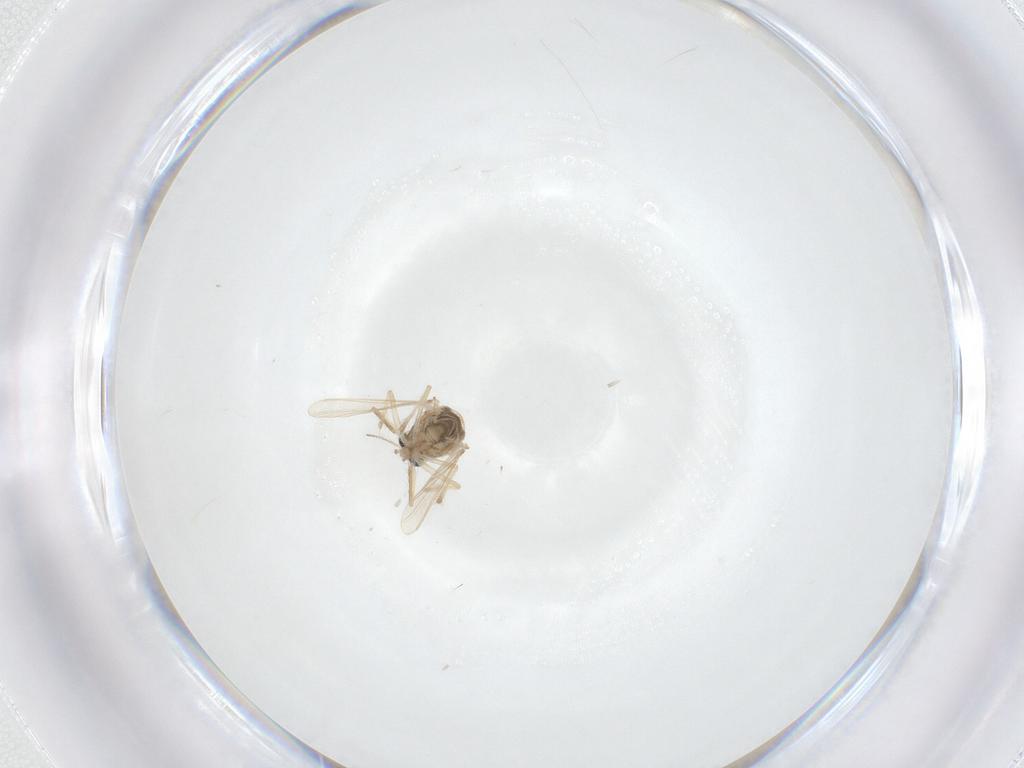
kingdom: Animalia
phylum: Arthropoda
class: Insecta
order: Diptera
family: Chironomidae
